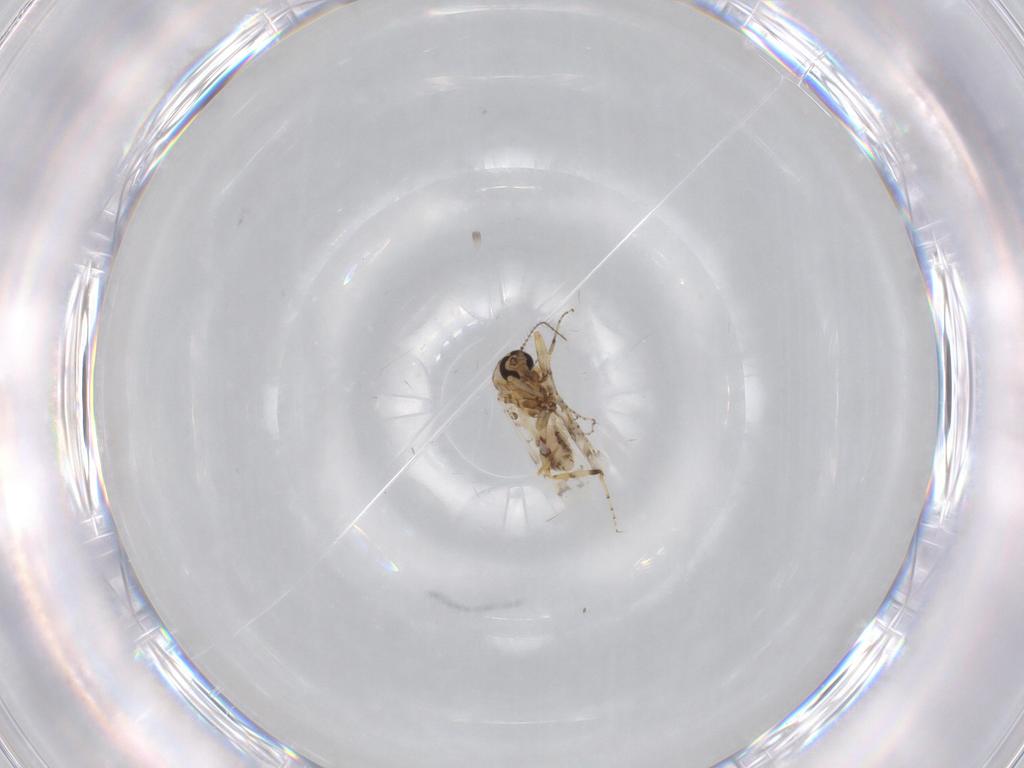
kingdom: Animalia
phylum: Arthropoda
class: Insecta
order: Diptera
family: Ceratopogonidae
